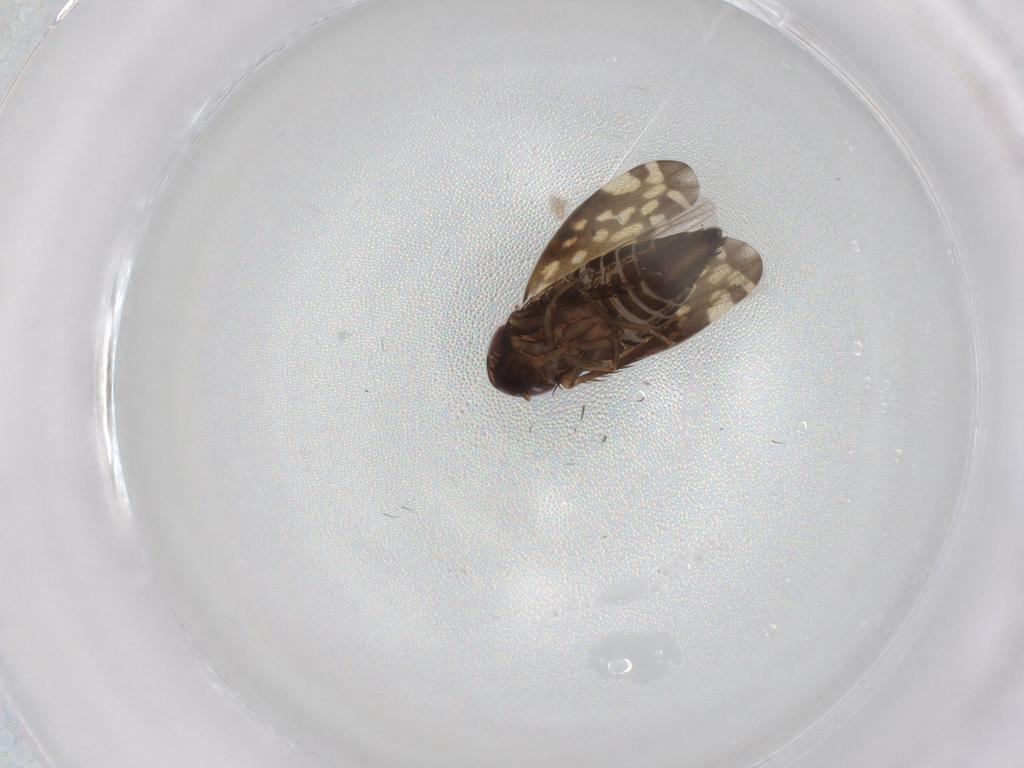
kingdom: Animalia
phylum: Arthropoda
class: Insecta
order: Hemiptera
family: Cicadellidae
